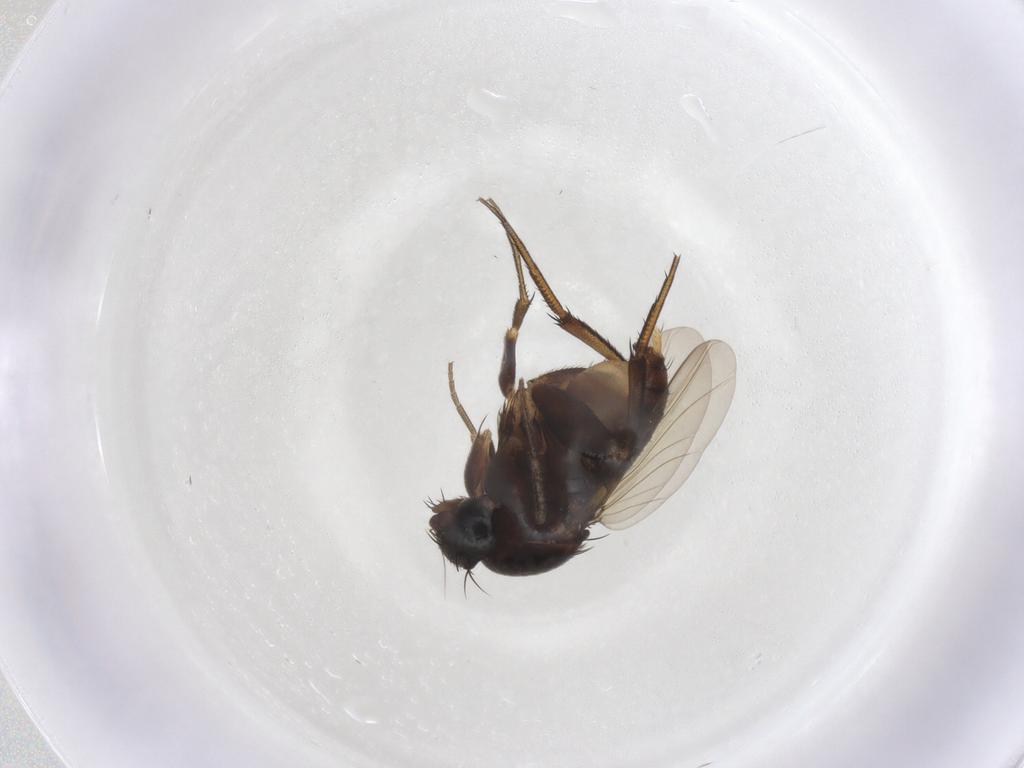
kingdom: Animalia
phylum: Arthropoda
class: Insecta
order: Diptera
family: Phoridae
